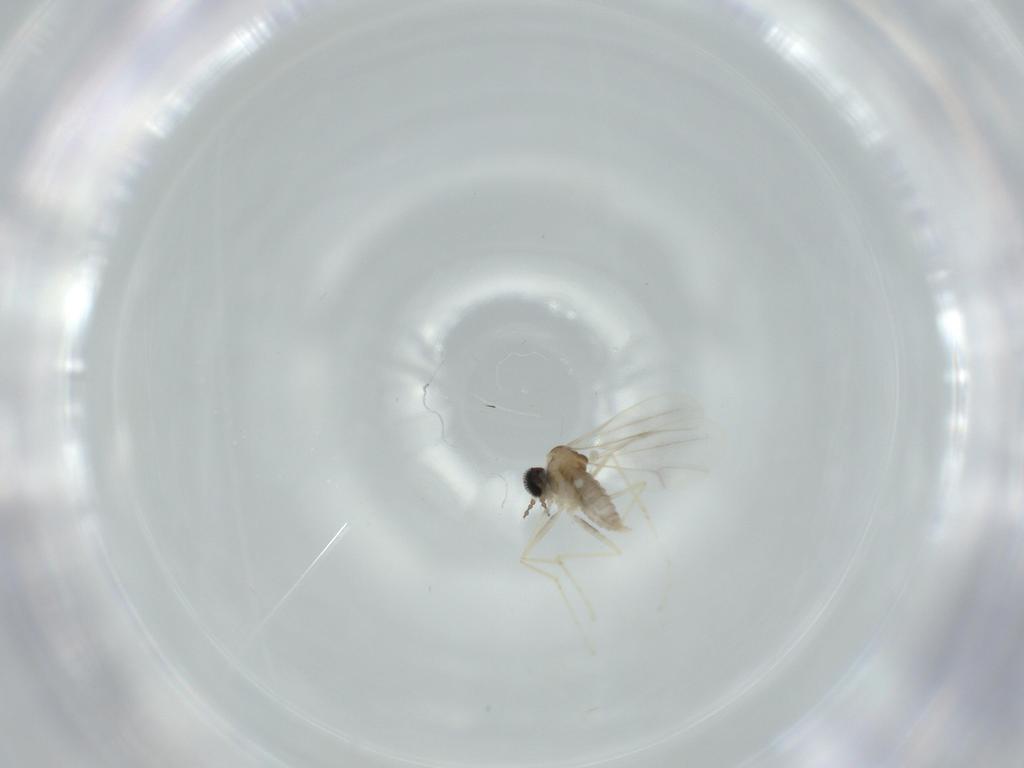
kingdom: Animalia
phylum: Arthropoda
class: Insecta
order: Diptera
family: Cecidomyiidae
